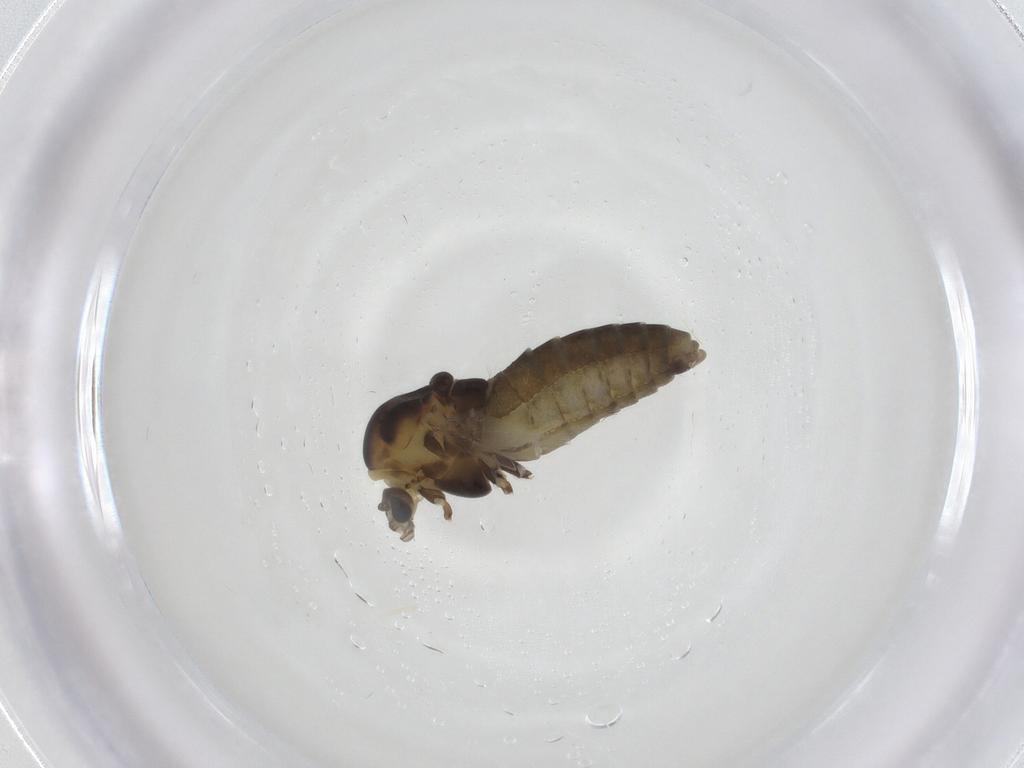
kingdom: Animalia
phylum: Arthropoda
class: Insecta
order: Diptera
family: Chironomidae
